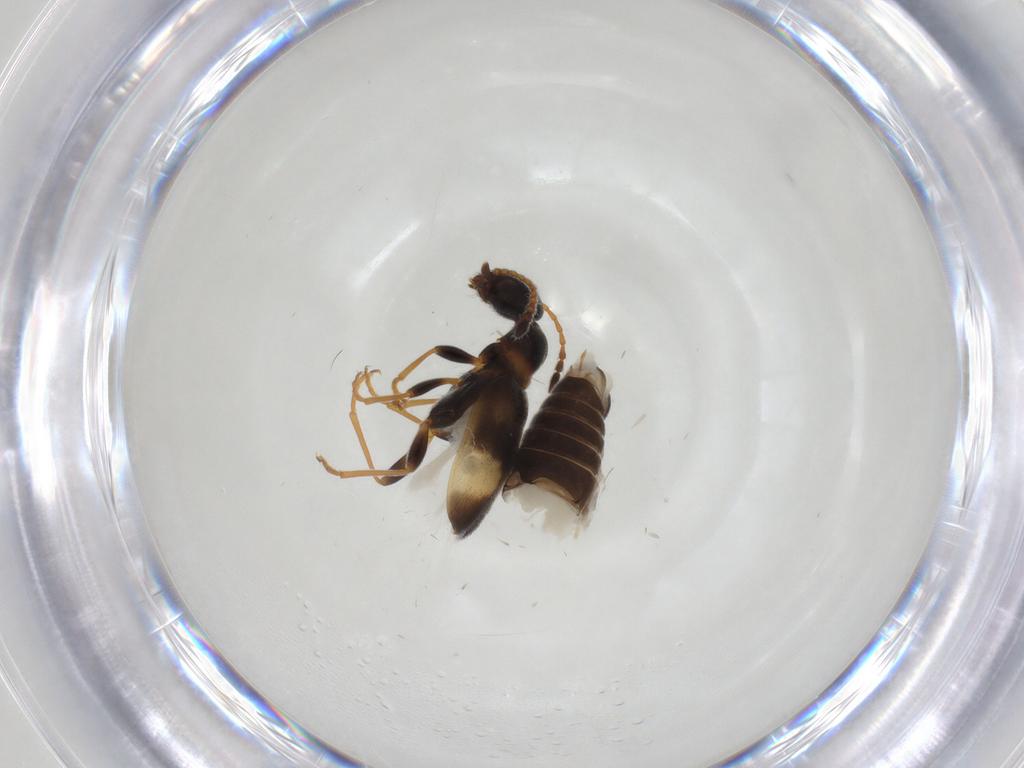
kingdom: Animalia
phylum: Arthropoda
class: Insecta
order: Coleoptera
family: Anthicidae
